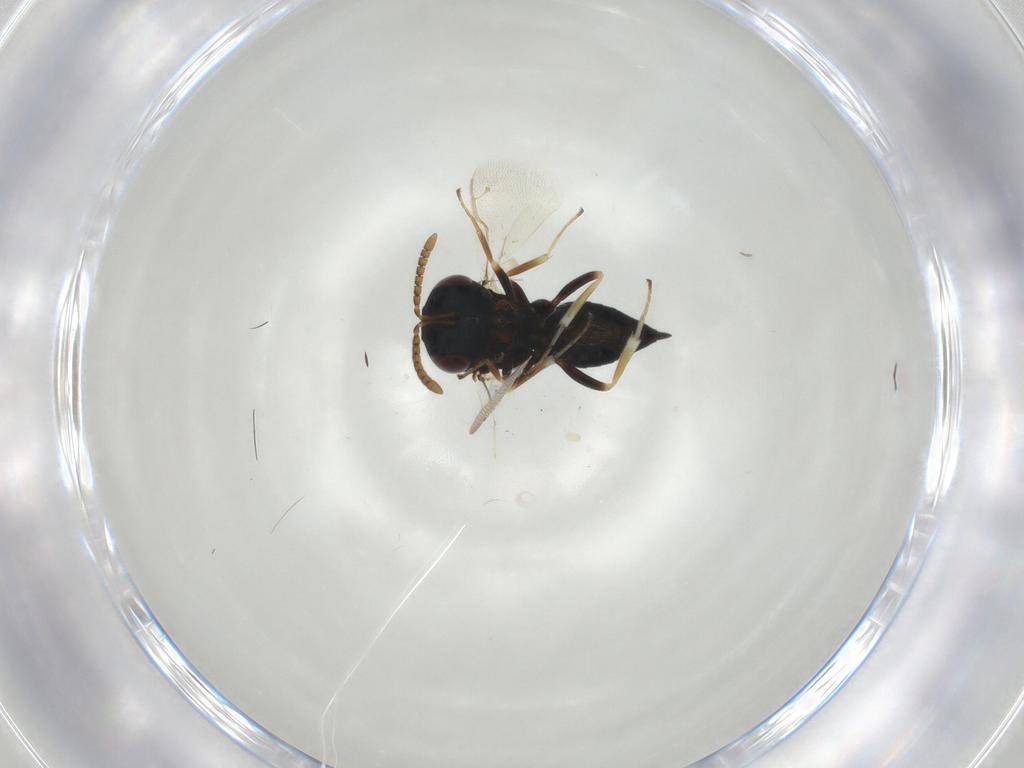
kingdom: Animalia
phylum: Arthropoda
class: Insecta
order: Hymenoptera
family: Pteromalidae
